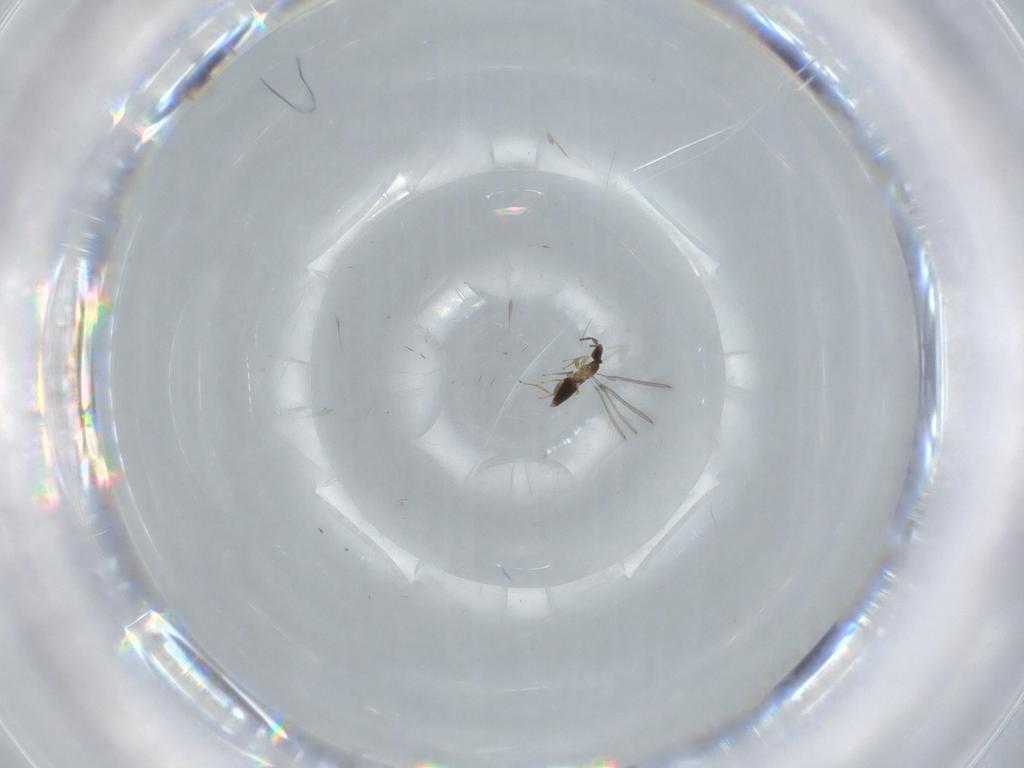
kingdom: Animalia
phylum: Arthropoda
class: Insecta
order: Hymenoptera
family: Mymaridae
